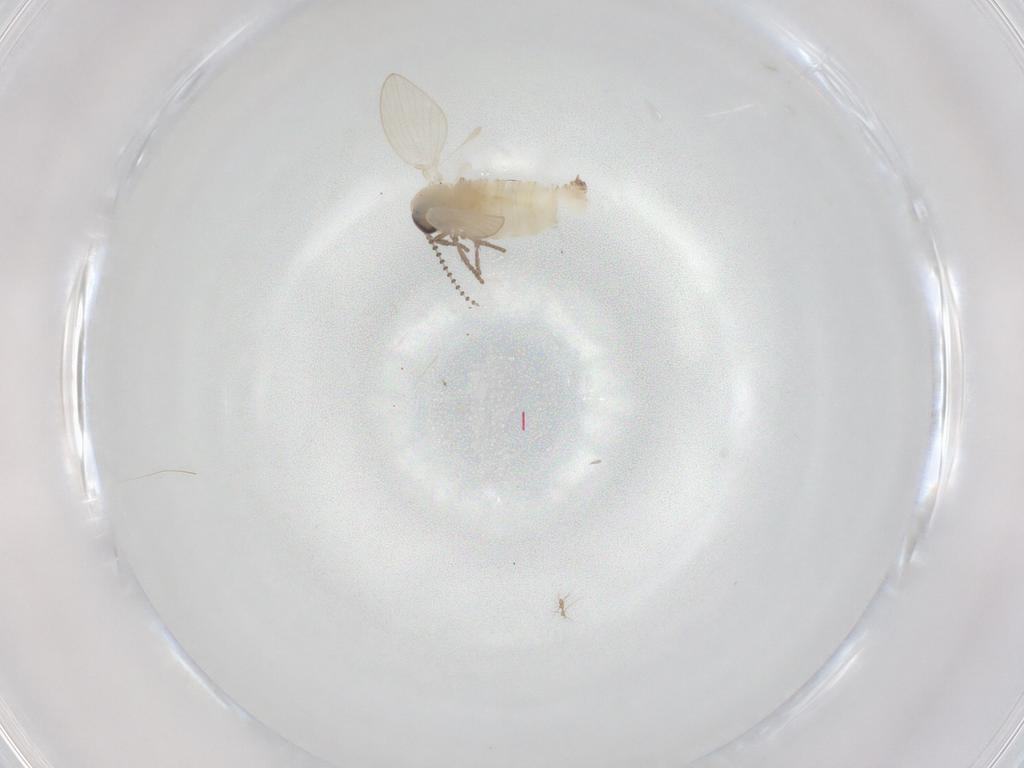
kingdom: Animalia
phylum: Arthropoda
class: Insecta
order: Diptera
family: Psychodidae
